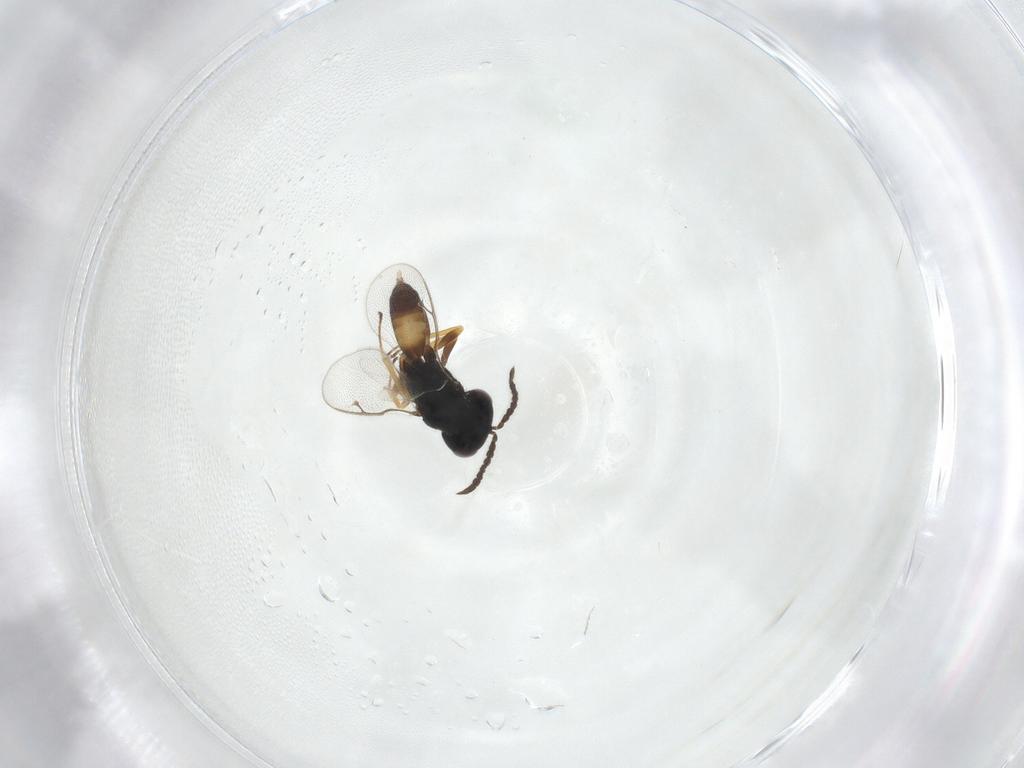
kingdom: Animalia
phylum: Arthropoda
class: Insecta
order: Hymenoptera
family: Pteromalidae
